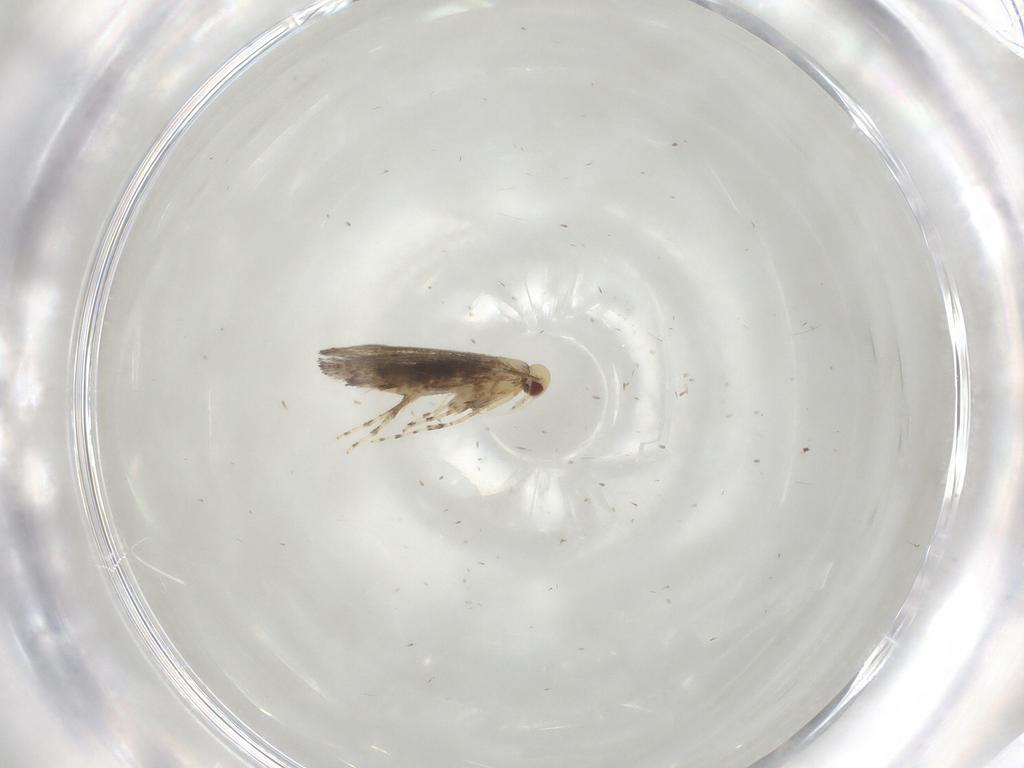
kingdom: Animalia
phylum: Arthropoda
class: Insecta
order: Lepidoptera
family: Gracillariidae
